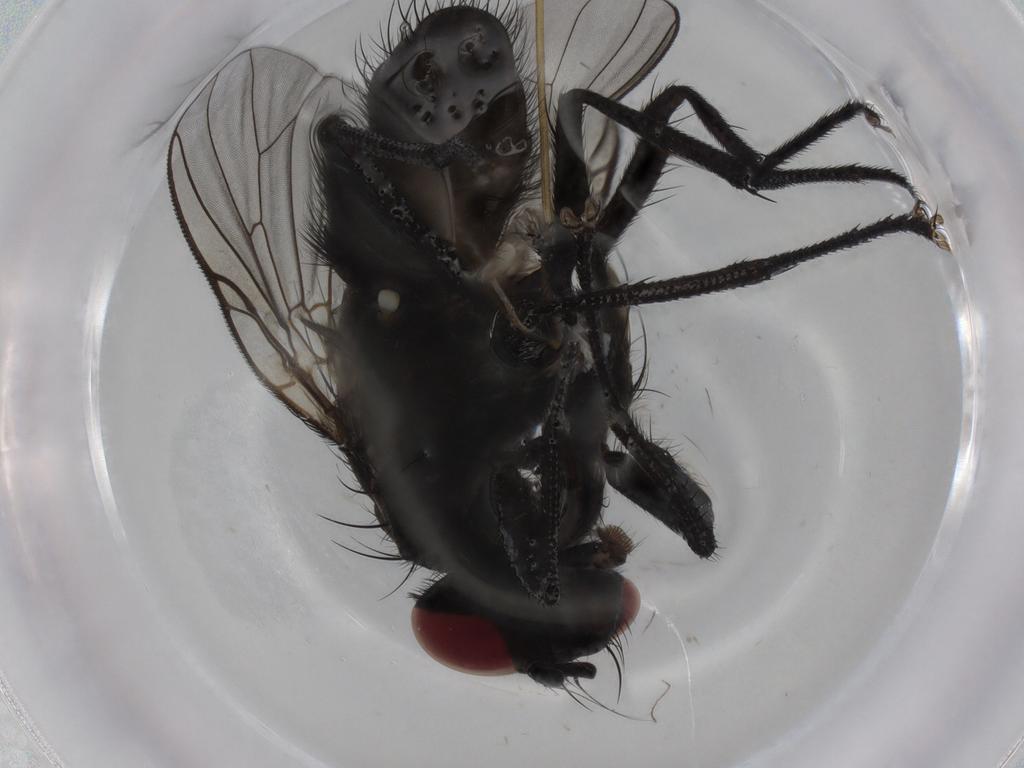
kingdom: Animalia
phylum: Arthropoda
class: Insecta
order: Diptera
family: Muscidae
